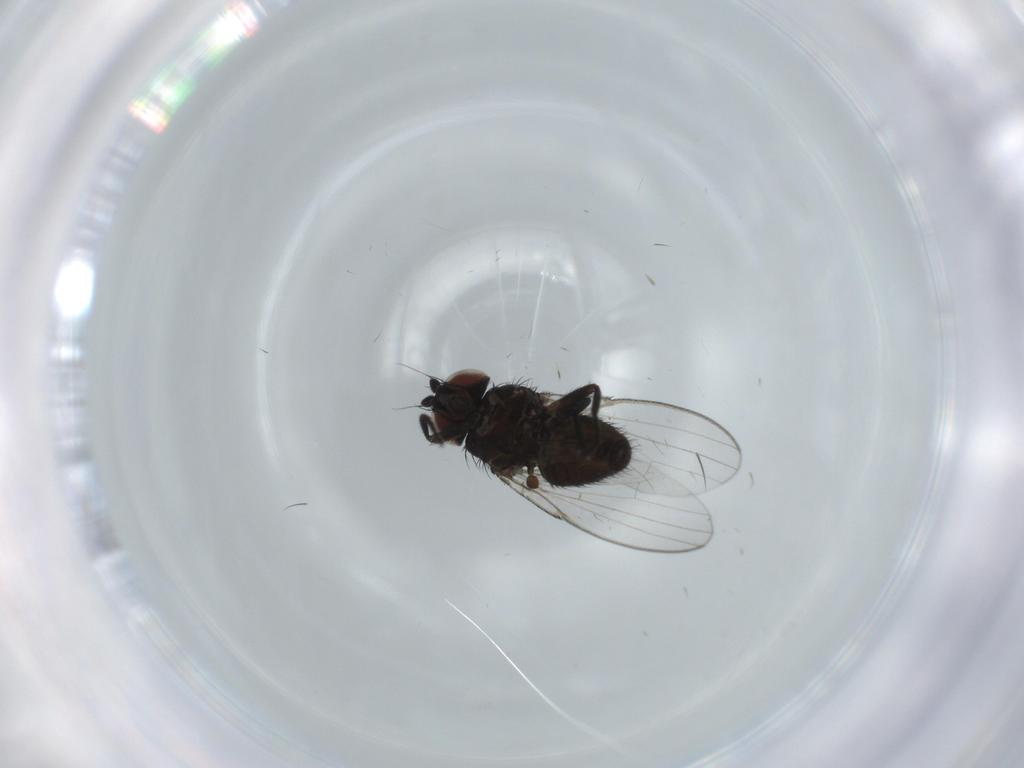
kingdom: Animalia
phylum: Arthropoda
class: Insecta
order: Diptera
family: Milichiidae
